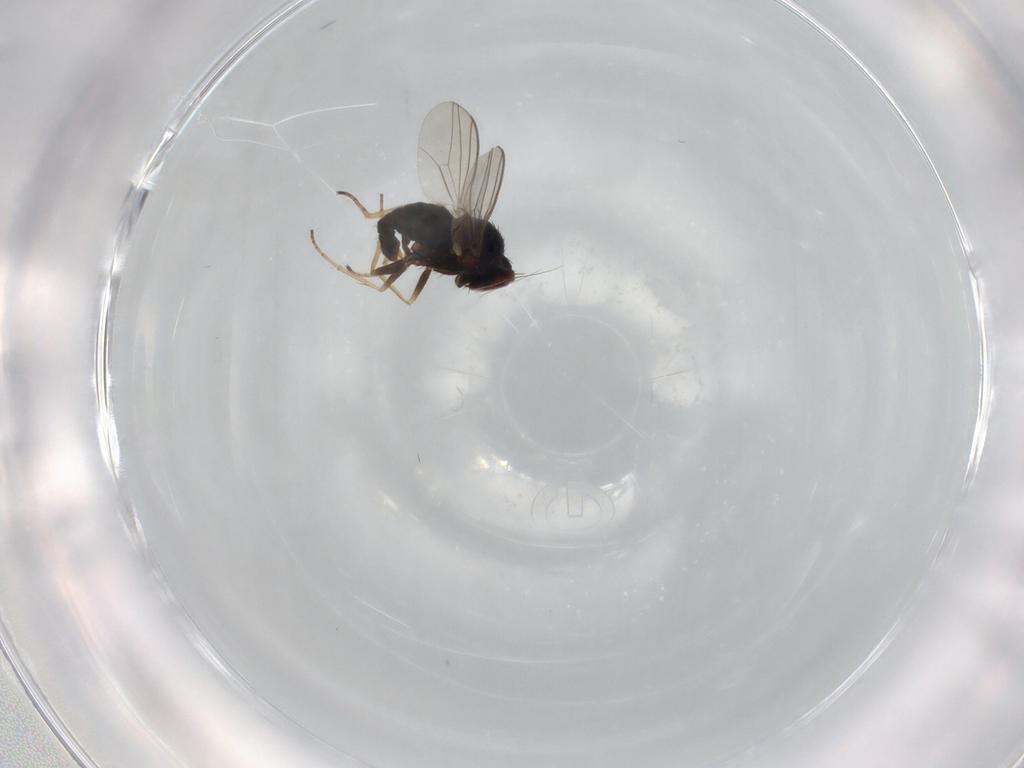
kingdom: Animalia
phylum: Arthropoda
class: Insecta
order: Diptera
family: Dolichopodidae
